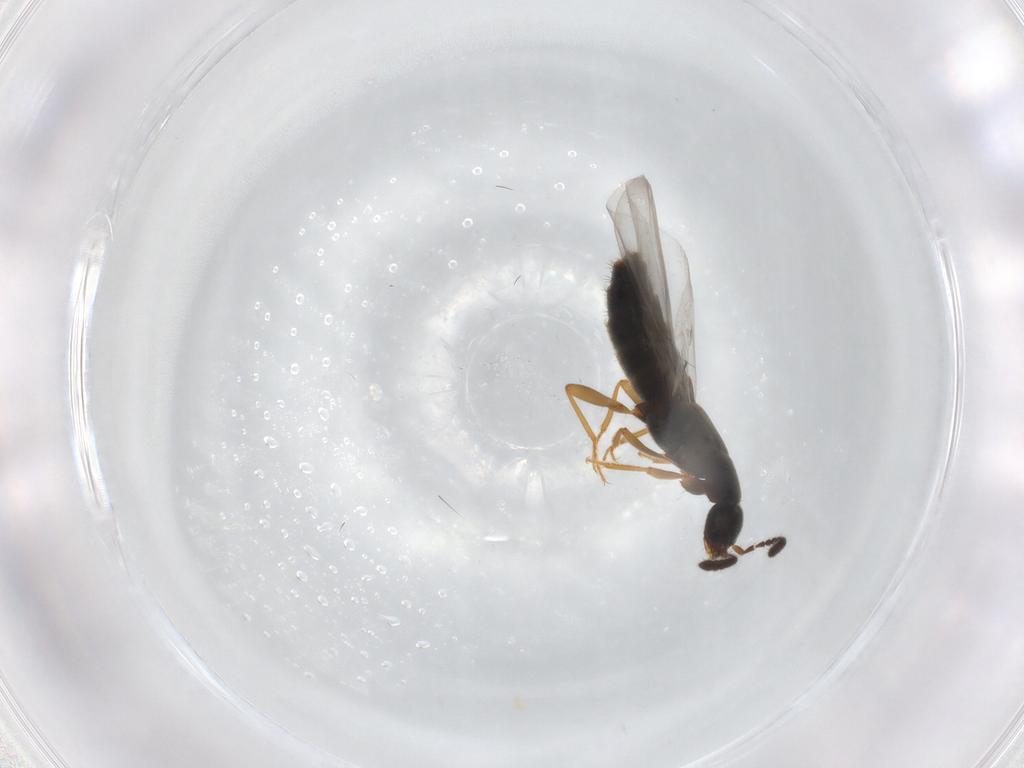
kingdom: Animalia
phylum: Arthropoda
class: Insecta
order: Coleoptera
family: Staphylinidae
